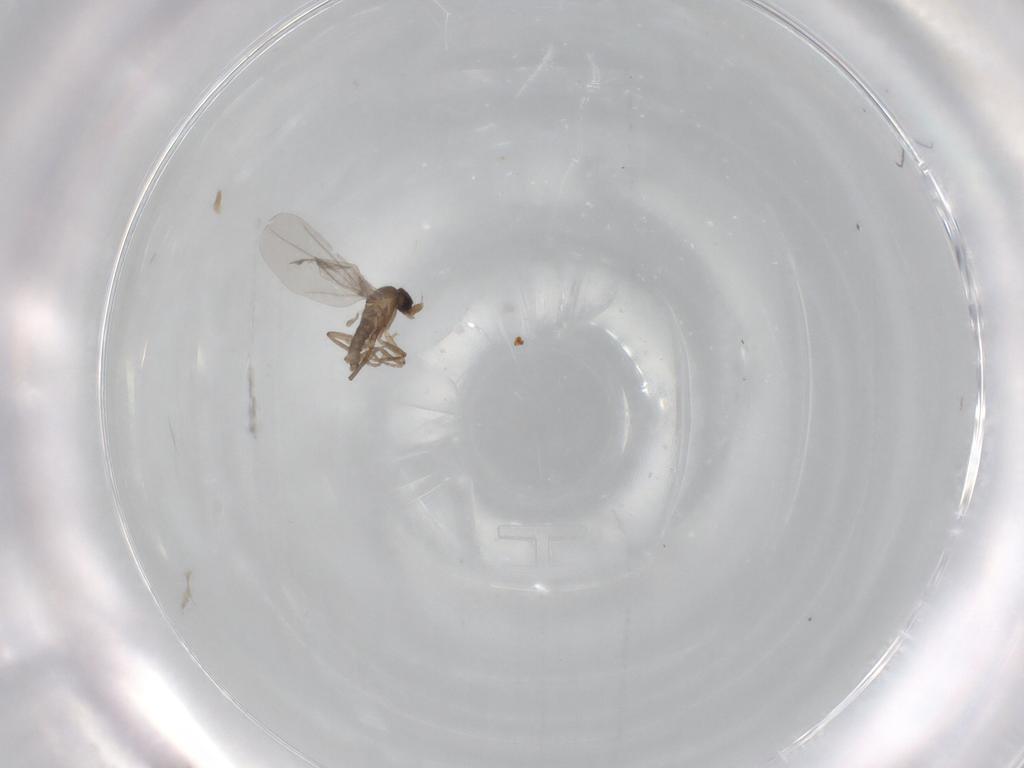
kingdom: Animalia
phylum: Arthropoda
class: Insecta
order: Diptera
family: Phoridae
